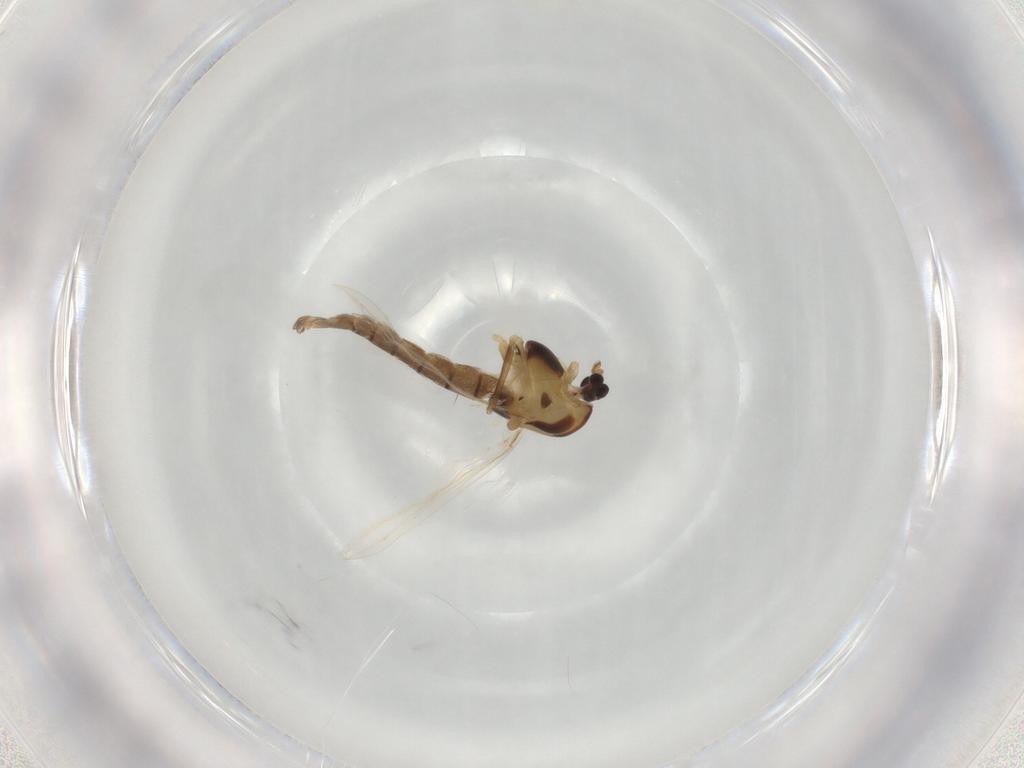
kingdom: Animalia
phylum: Arthropoda
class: Insecta
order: Diptera
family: Chironomidae
